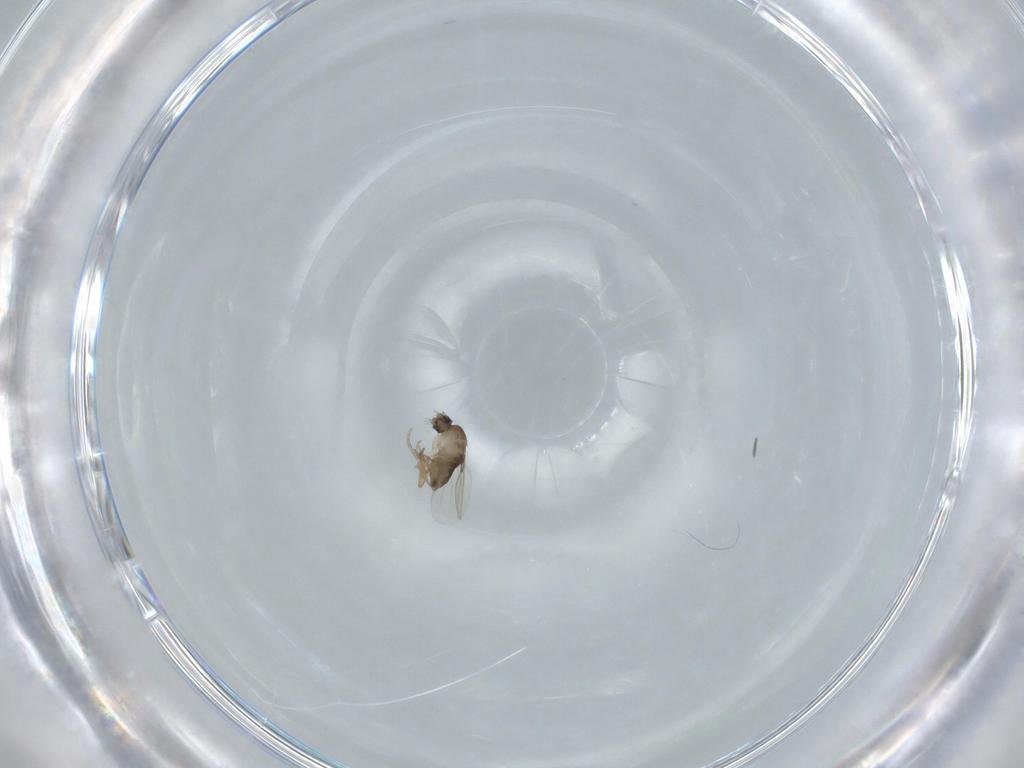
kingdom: Animalia
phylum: Arthropoda
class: Insecta
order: Diptera
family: Phoridae
